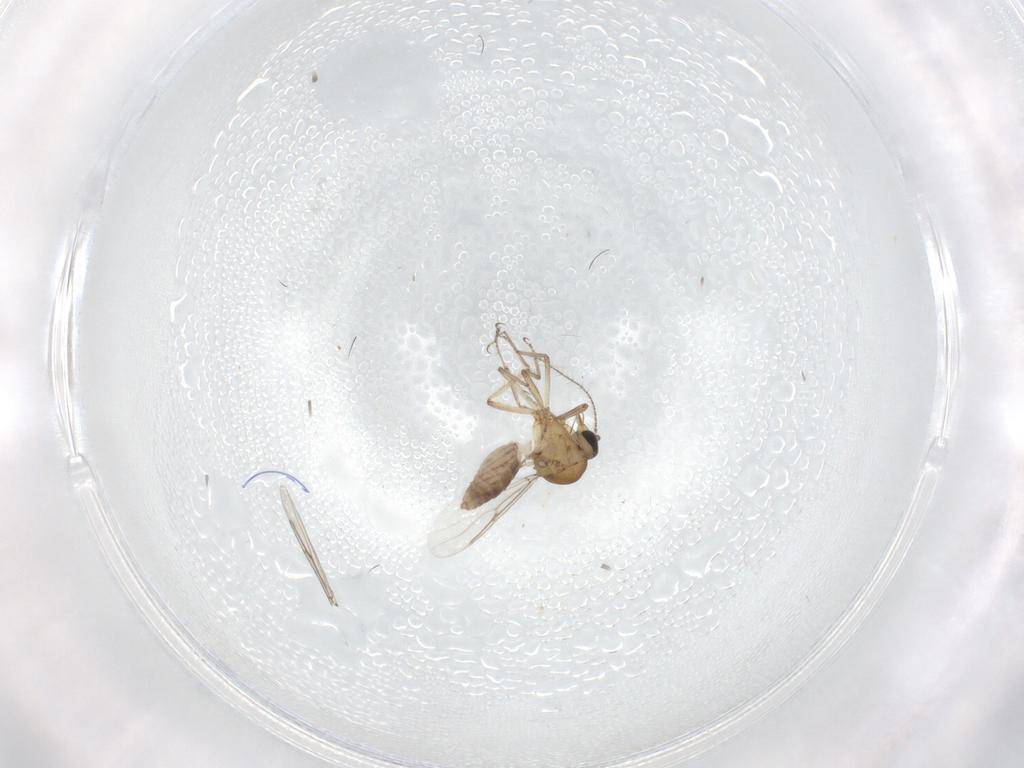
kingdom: Animalia
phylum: Arthropoda
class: Insecta
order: Diptera
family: Ceratopogonidae
